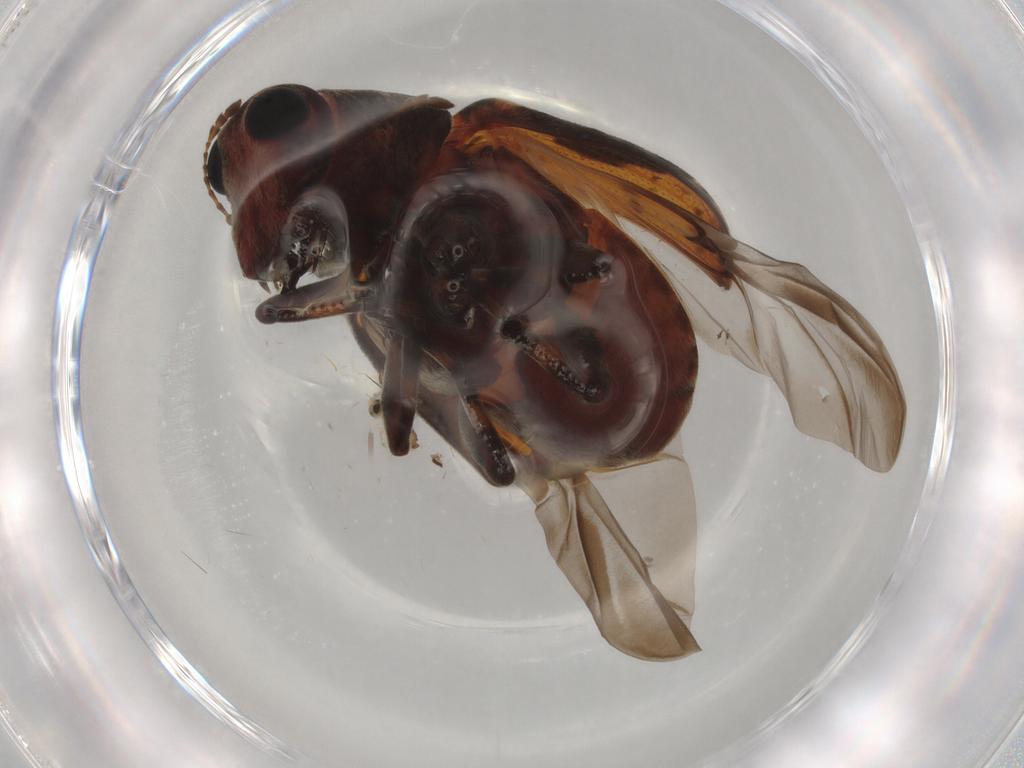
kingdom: Animalia
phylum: Arthropoda
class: Insecta
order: Coleoptera
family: Anthribidae
